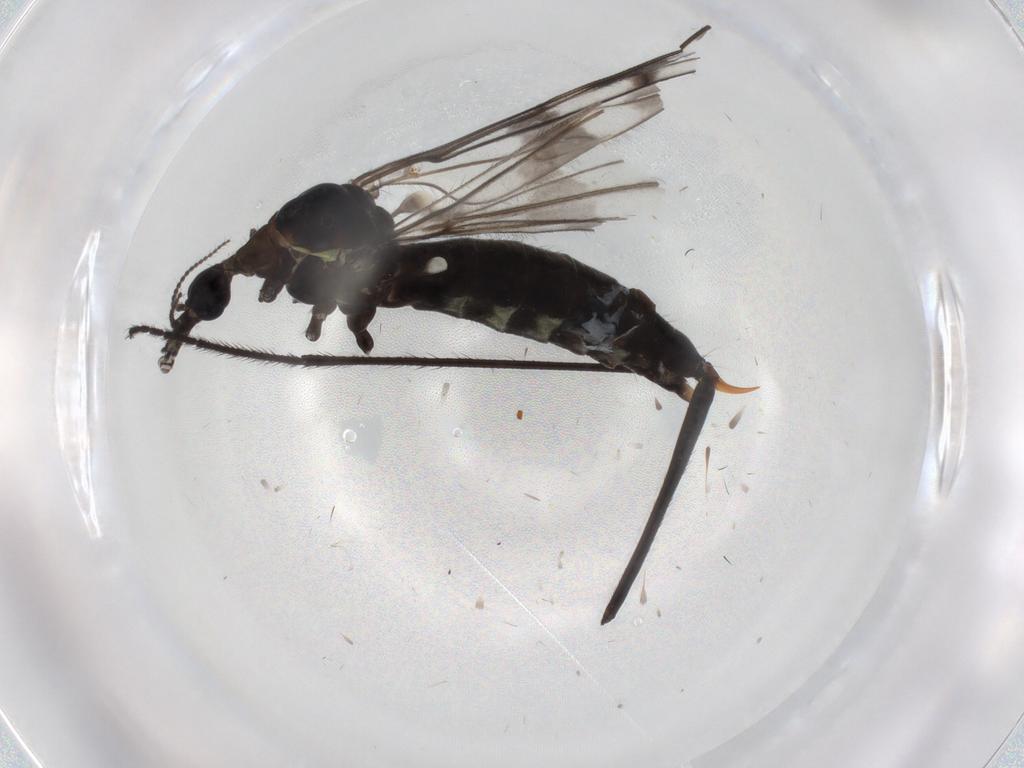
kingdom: Animalia
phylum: Arthropoda
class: Insecta
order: Diptera
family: Limoniidae
